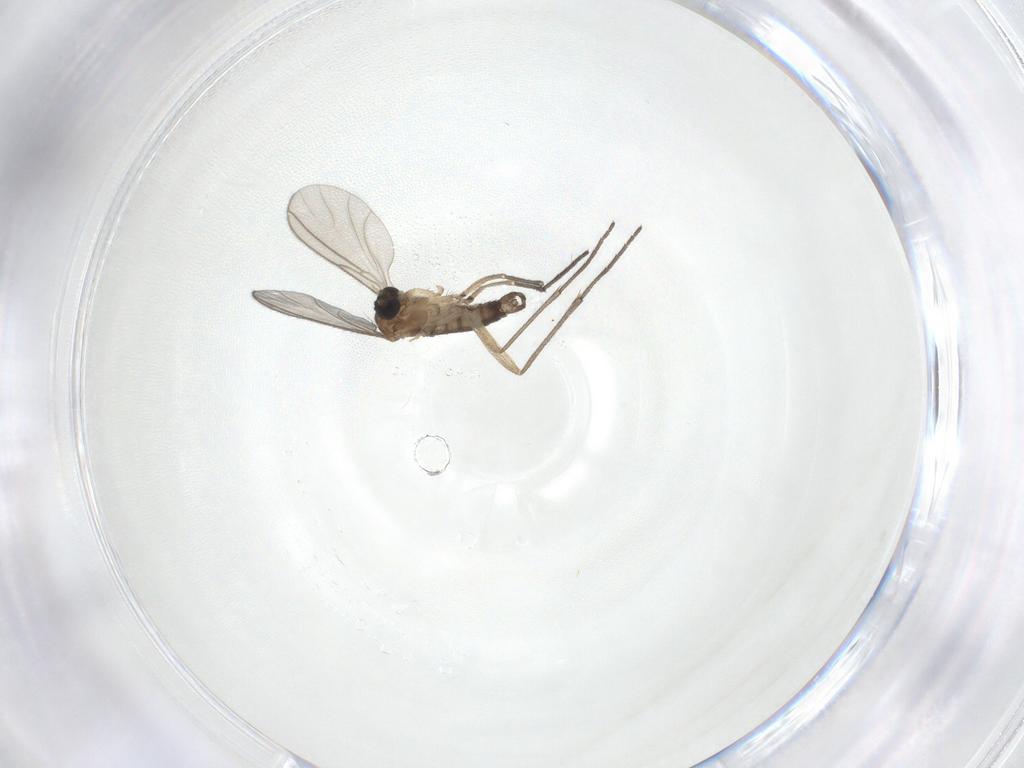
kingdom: Animalia
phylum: Arthropoda
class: Insecta
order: Diptera
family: Sciaridae
